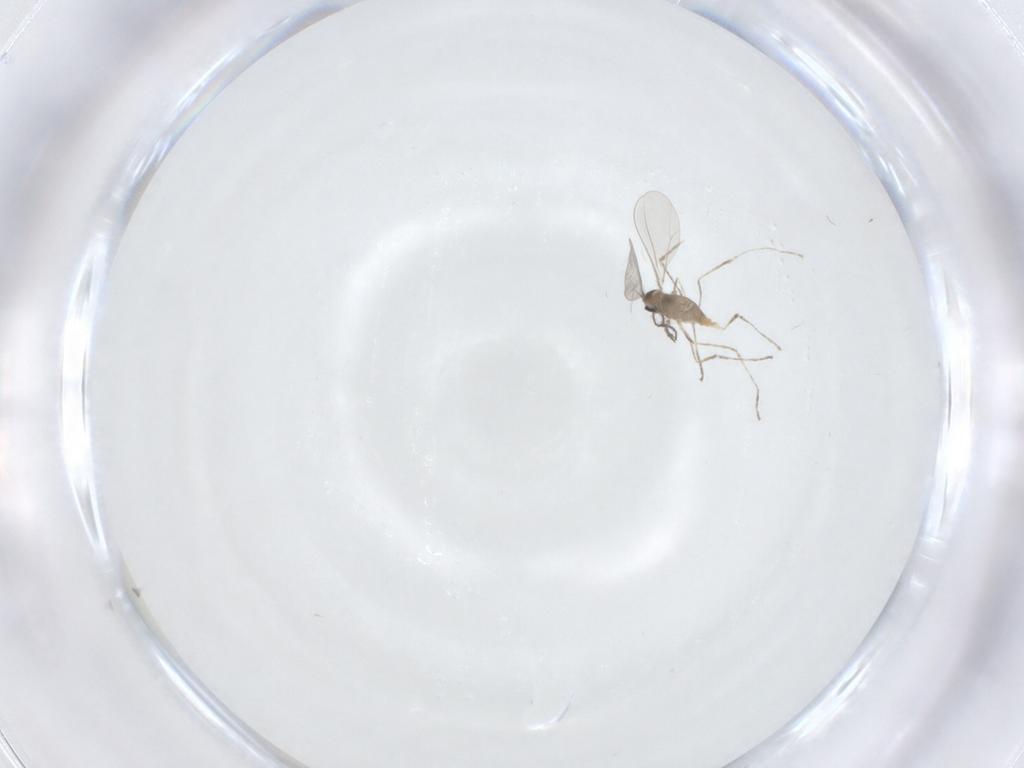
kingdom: Animalia
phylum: Arthropoda
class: Insecta
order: Diptera
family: Cecidomyiidae
